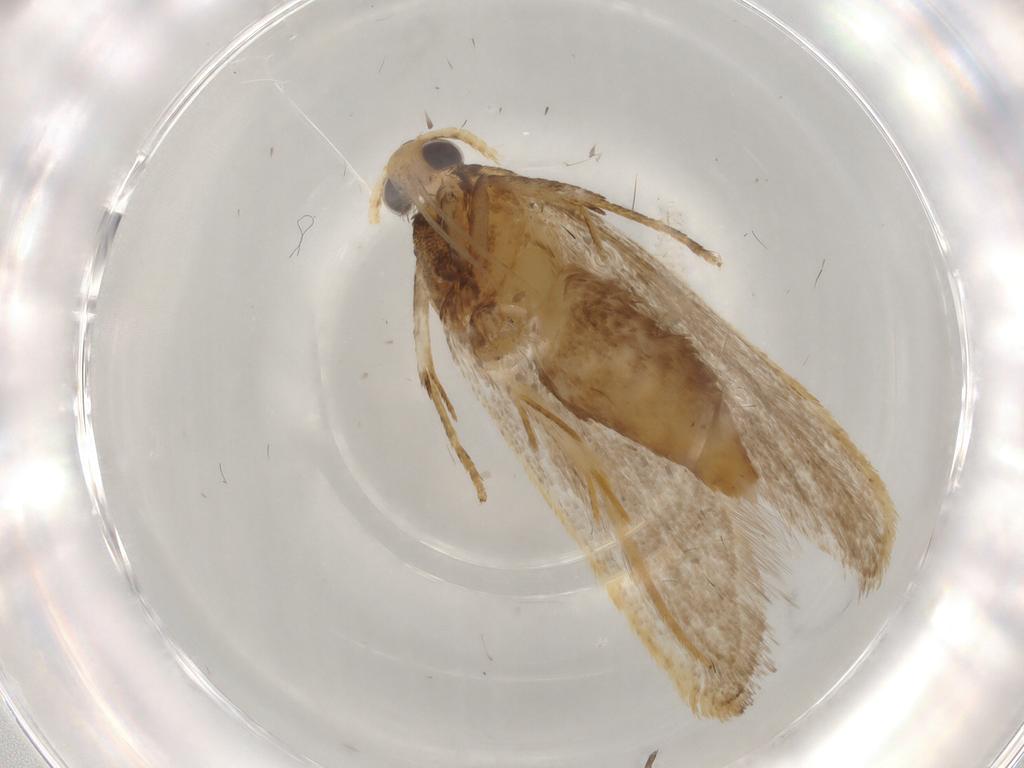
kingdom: Animalia
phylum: Arthropoda
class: Insecta
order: Lepidoptera
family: Lecithoceridae
